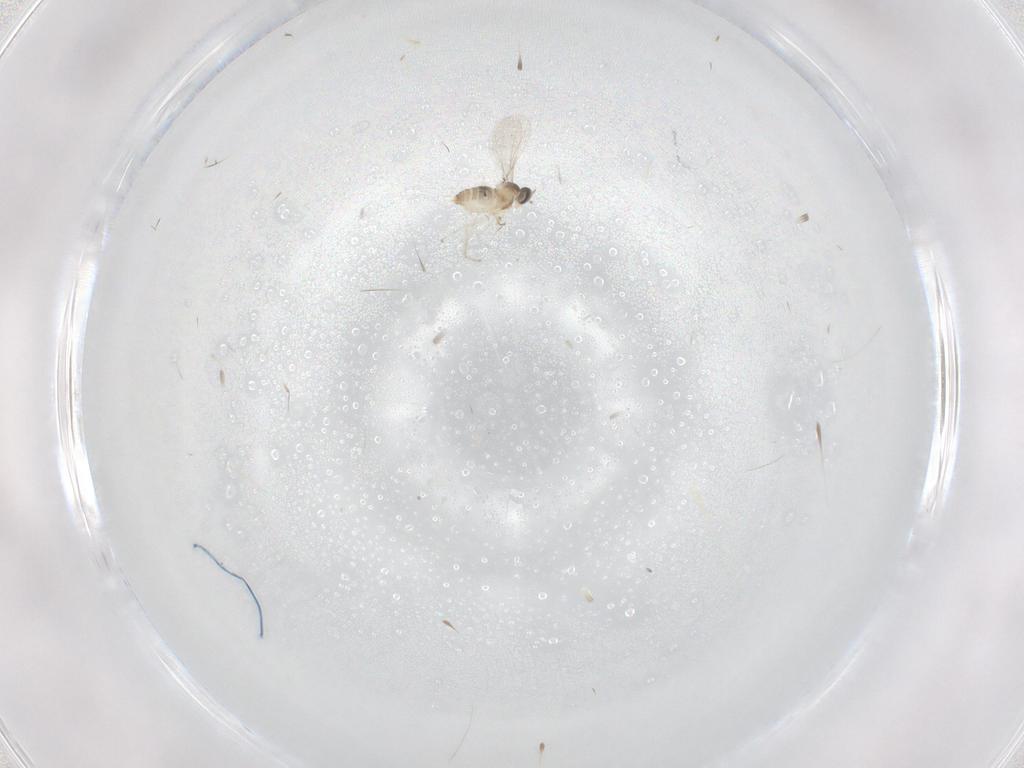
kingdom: Animalia
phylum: Arthropoda
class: Insecta
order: Diptera
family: Cecidomyiidae
